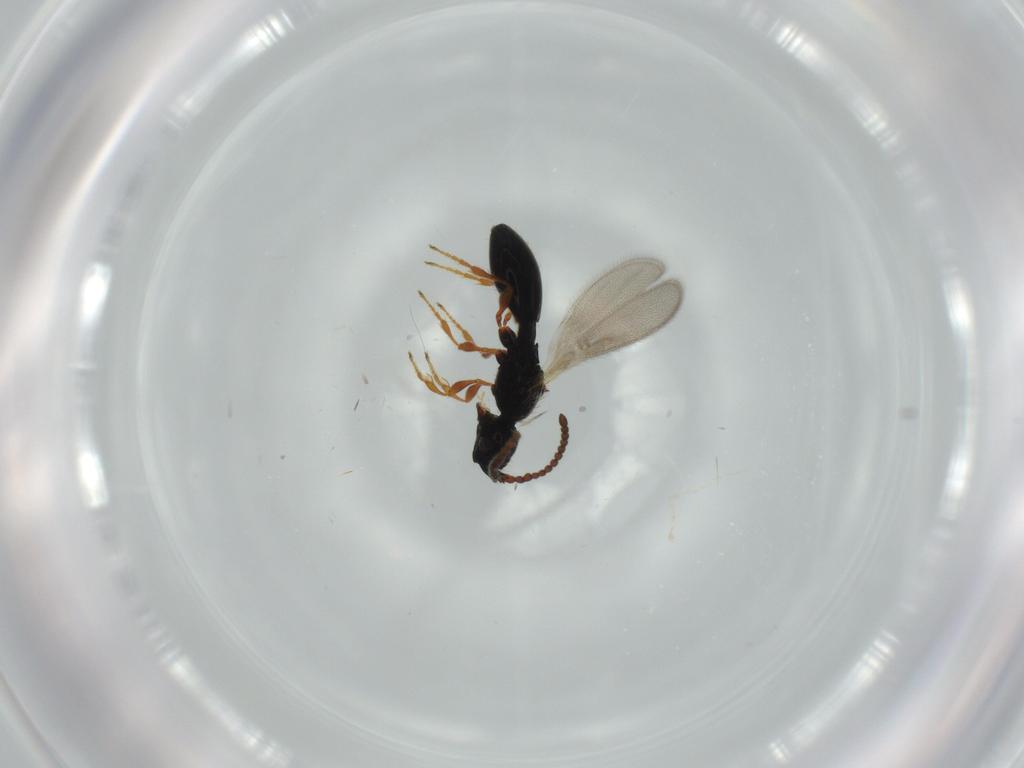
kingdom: Animalia
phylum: Arthropoda
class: Insecta
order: Hymenoptera
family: Diapriidae
